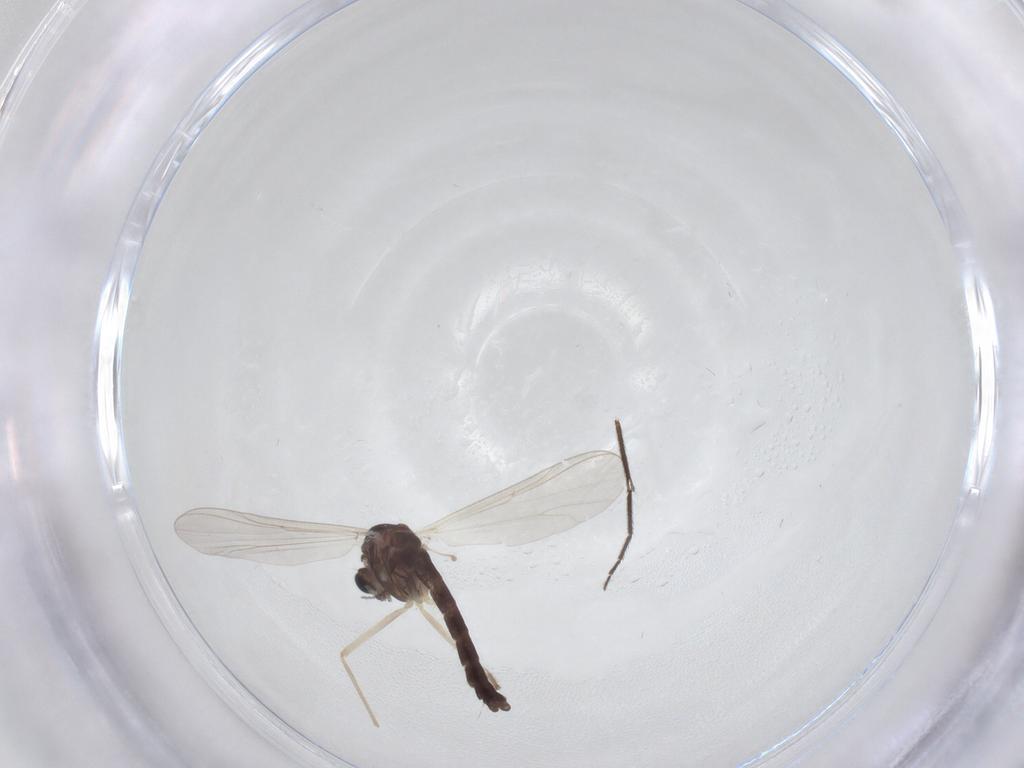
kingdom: Animalia
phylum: Arthropoda
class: Insecta
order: Diptera
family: Chironomidae
